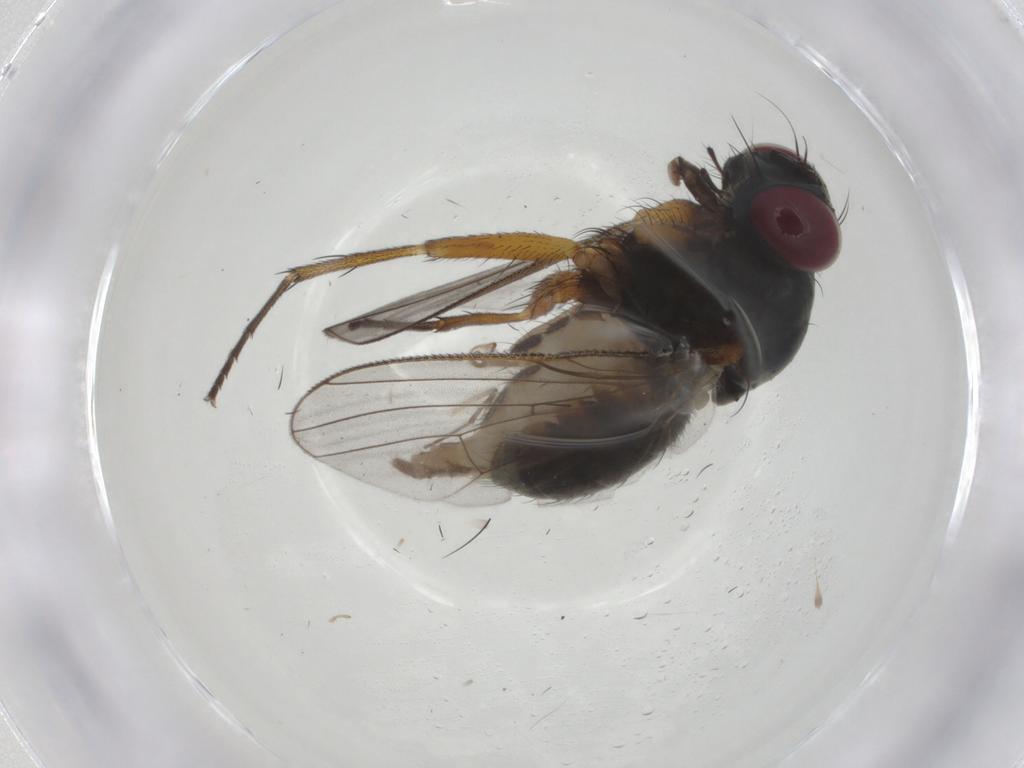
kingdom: Animalia
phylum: Arthropoda
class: Insecta
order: Diptera
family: Muscidae
